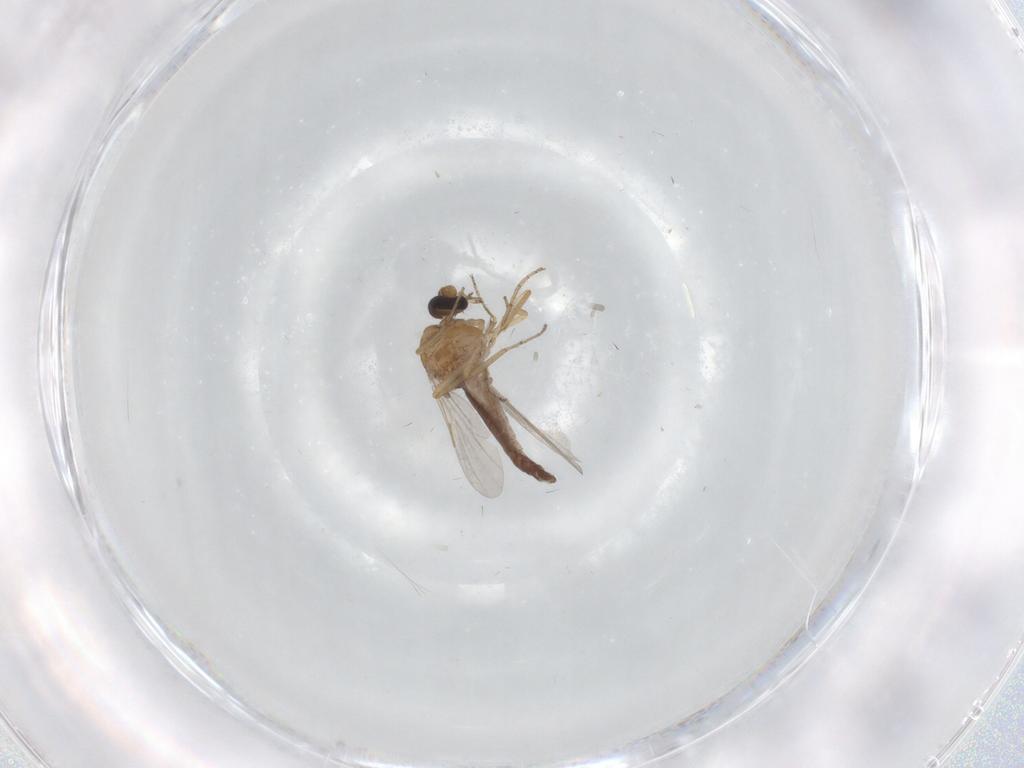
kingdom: Animalia
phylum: Arthropoda
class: Insecta
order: Diptera
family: Ceratopogonidae
